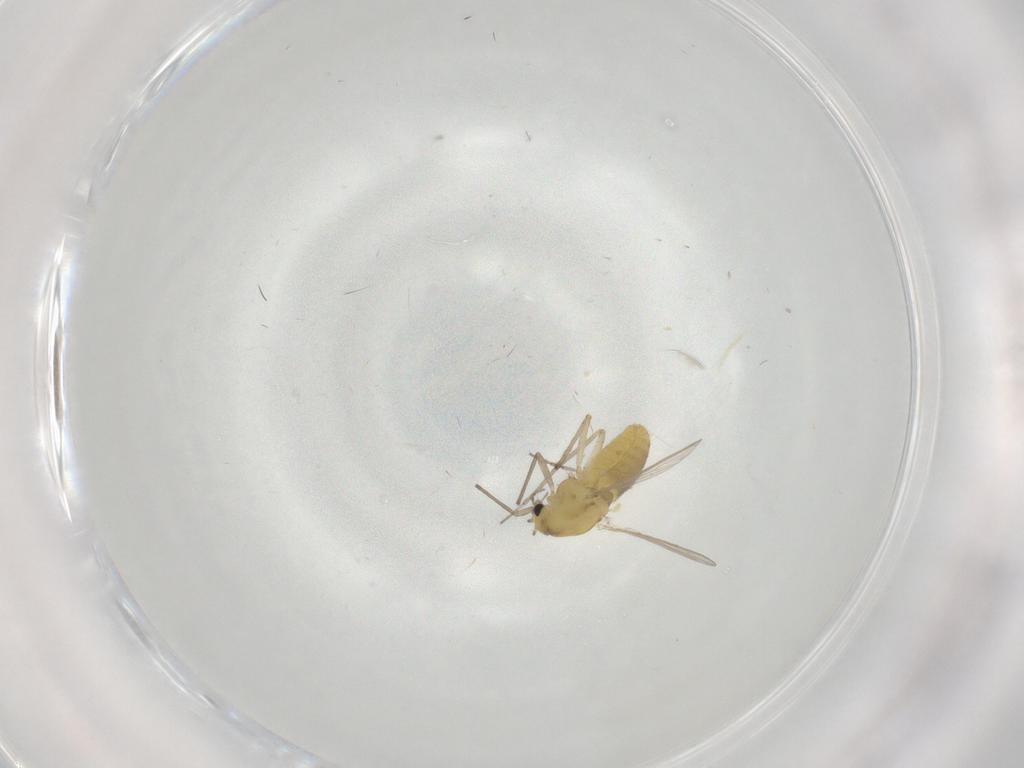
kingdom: Animalia
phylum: Arthropoda
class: Insecta
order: Diptera
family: Chironomidae
